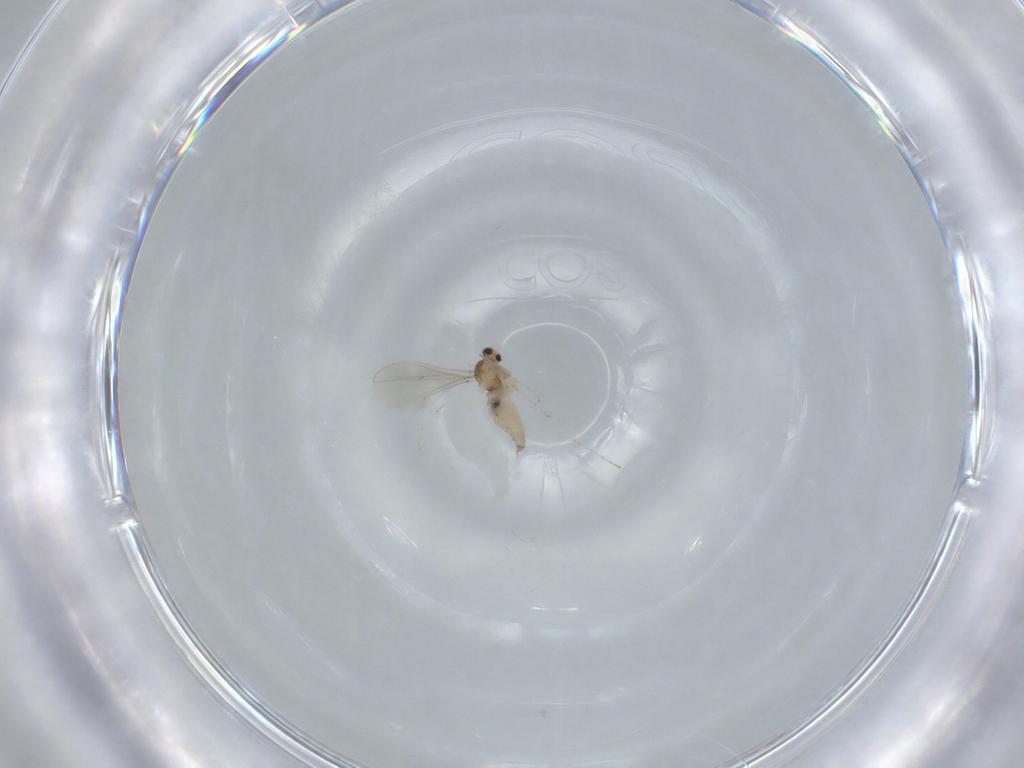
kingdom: Animalia
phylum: Arthropoda
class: Insecta
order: Diptera
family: Cecidomyiidae
